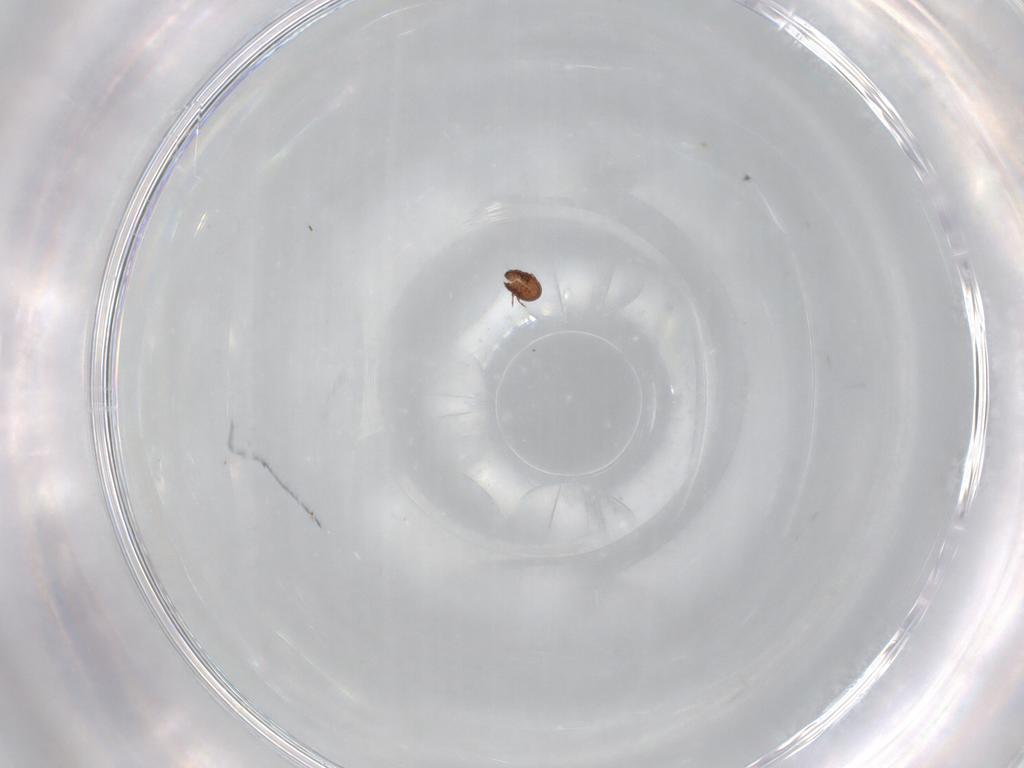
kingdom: Animalia
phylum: Arthropoda
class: Arachnida
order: Sarcoptiformes
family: Tectocepheidae
